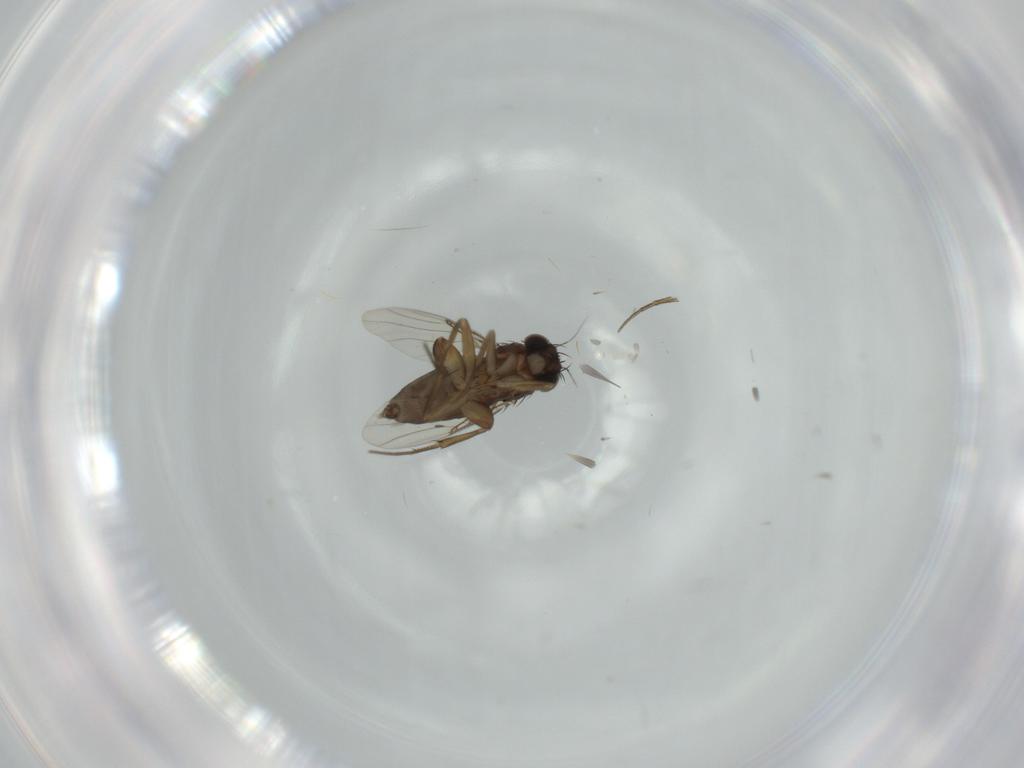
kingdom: Animalia
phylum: Arthropoda
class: Insecta
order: Diptera
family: Phoridae
